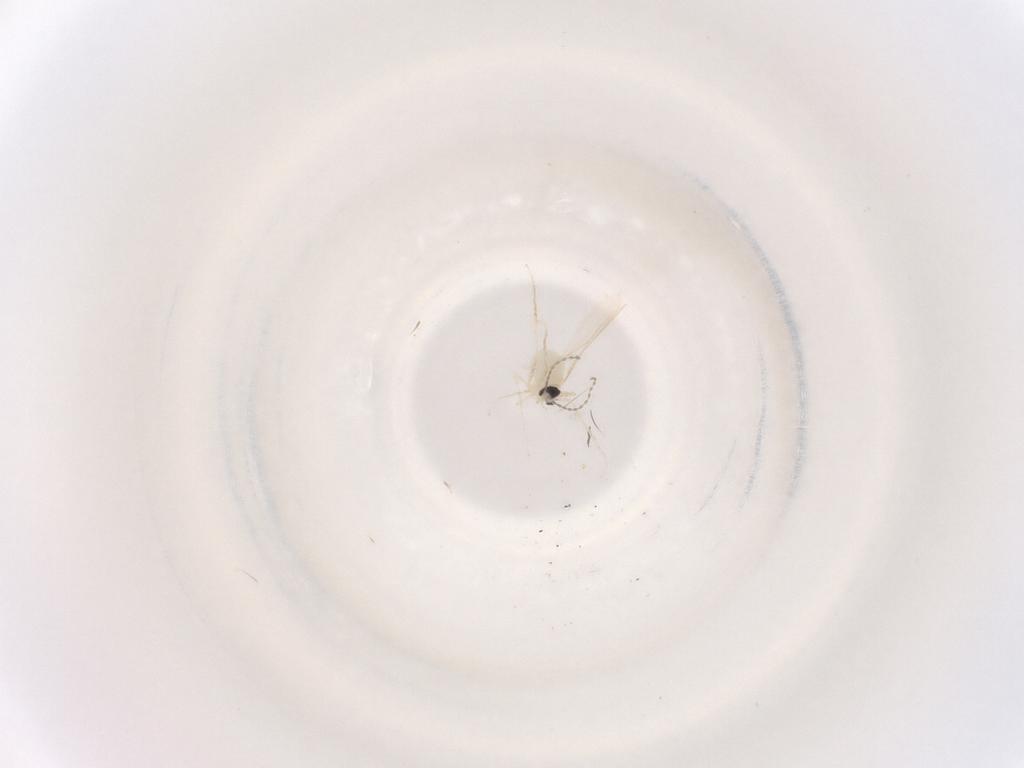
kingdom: Animalia
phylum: Arthropoda
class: Insecta
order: Diptera
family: Cecidomyiidae
